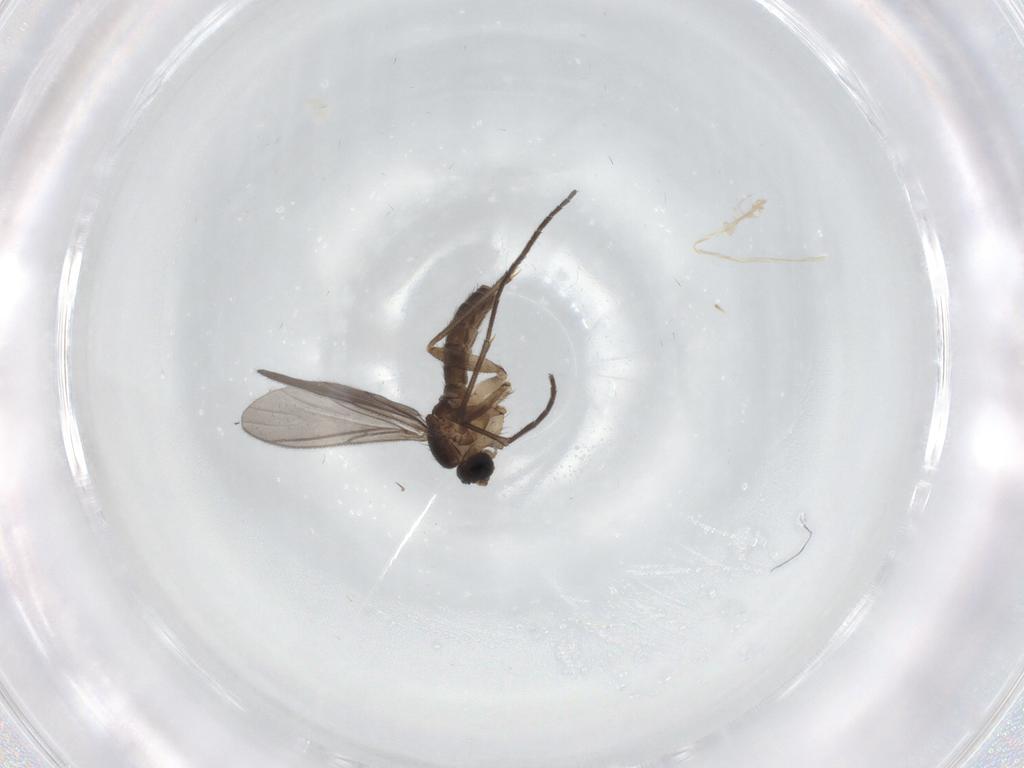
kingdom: Animalia
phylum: Arthropoda
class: Insecta
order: Diptera
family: Sciaridae
